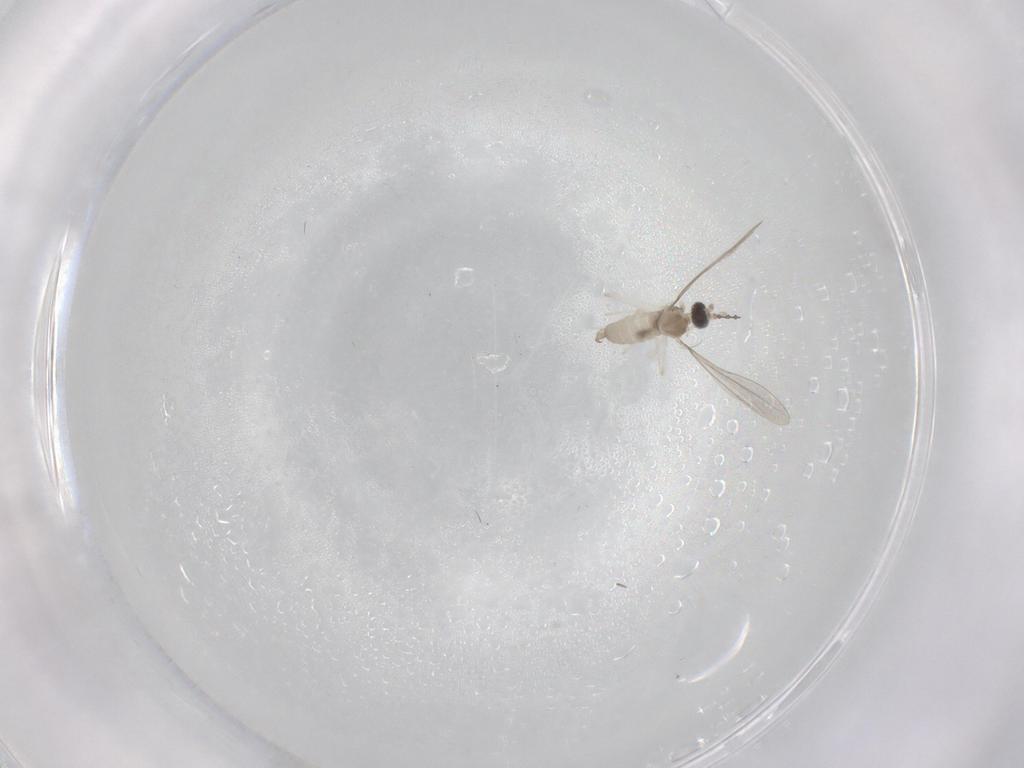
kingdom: Animalia
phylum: Arthropoda
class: Insecta
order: Diptera
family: Cecidomyiidae
